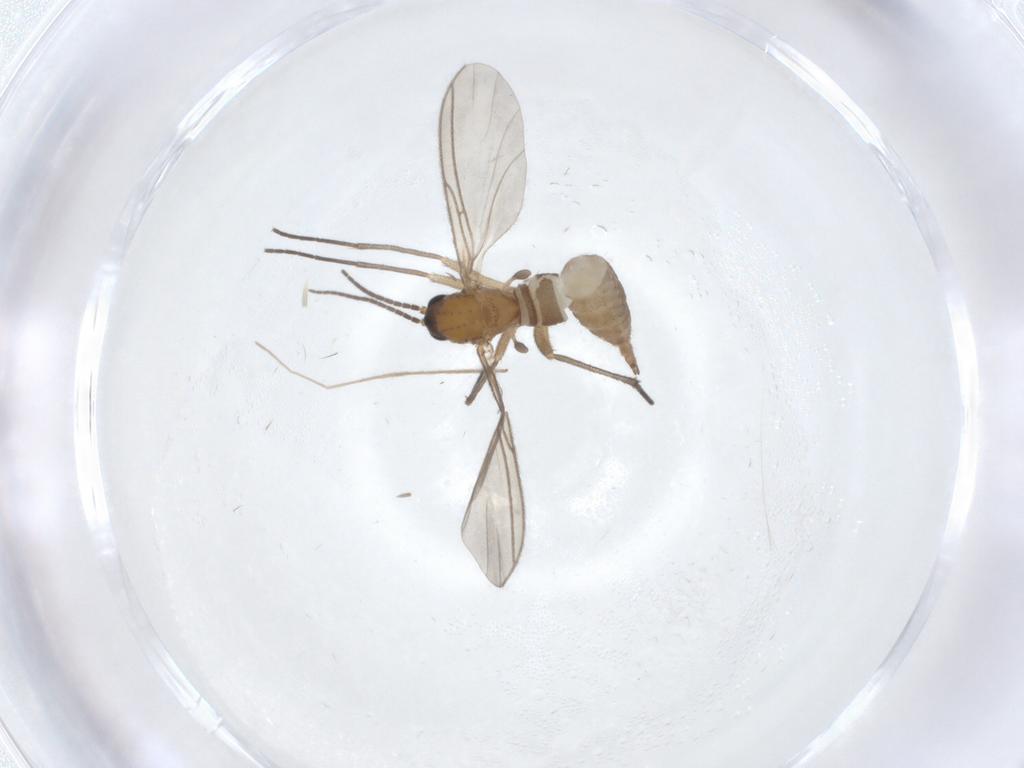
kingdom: Animalia
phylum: Arthropoda
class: Insecta
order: Diptera
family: Sciaridae
